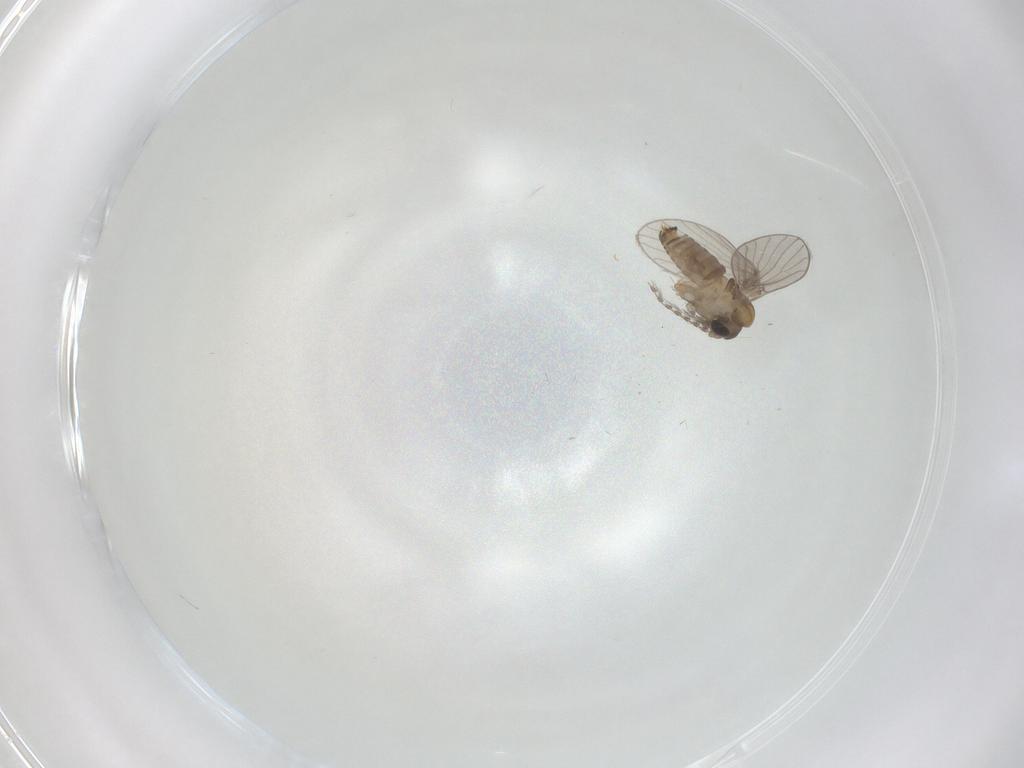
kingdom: Animalia
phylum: Arthropoda
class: Insecta
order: Diptera
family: Psychodidae
